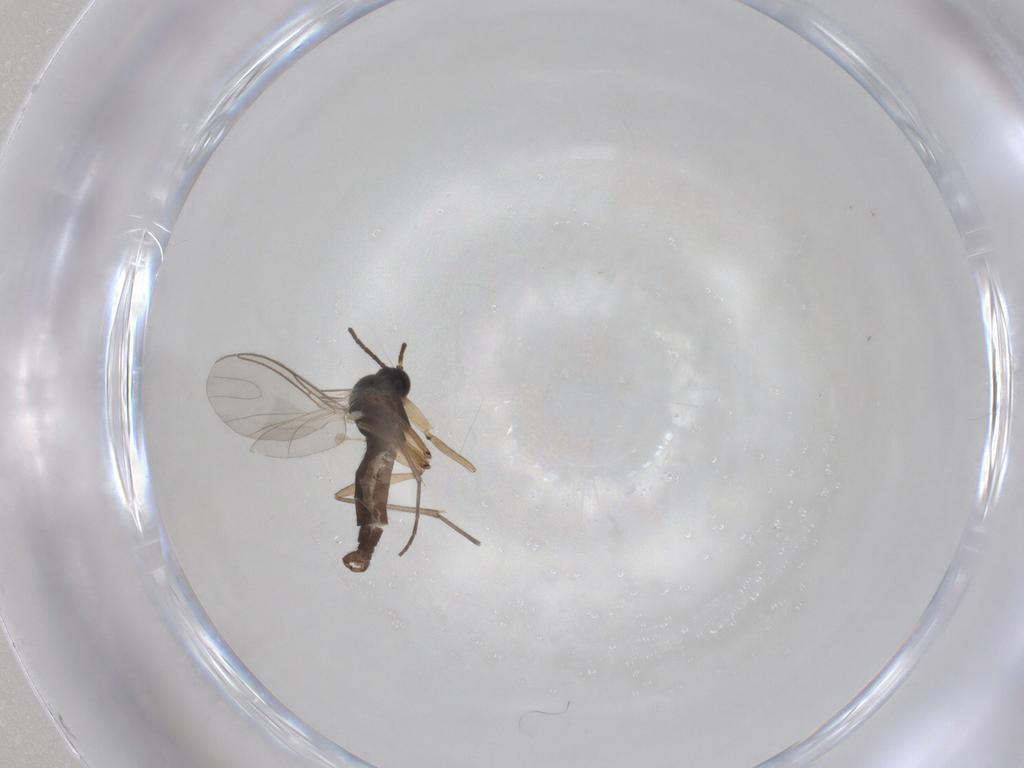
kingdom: Animalia
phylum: Arthropoda
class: Insecta
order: Diptera
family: Sciaridae
